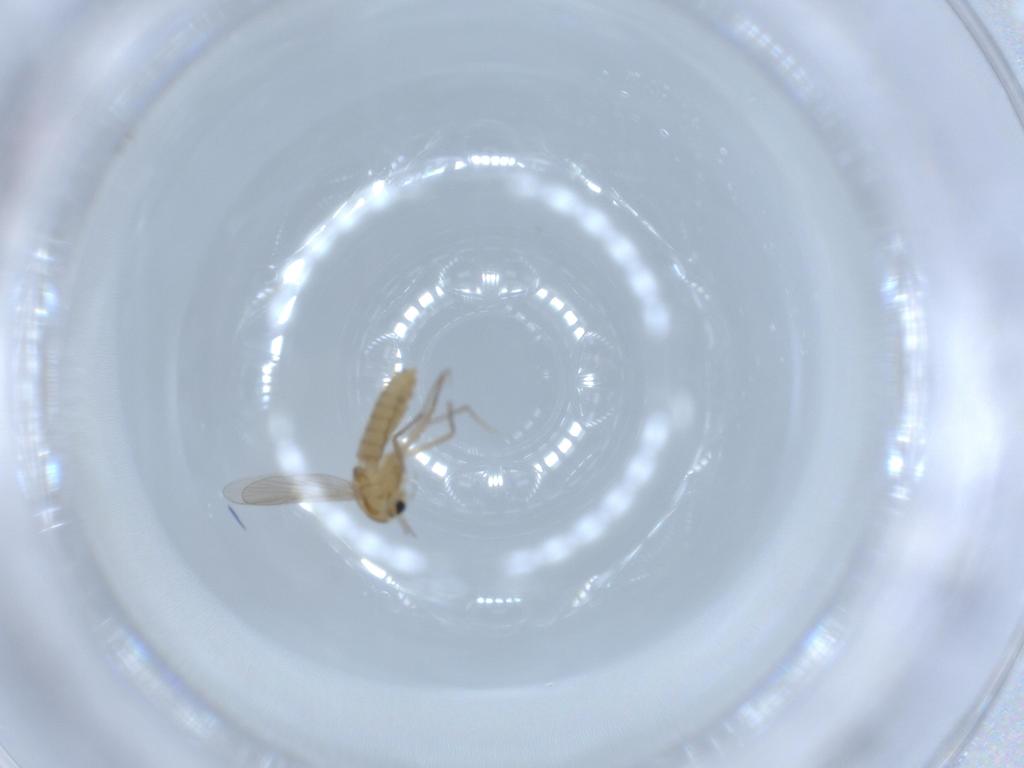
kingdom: Animalia
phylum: Arthropoda
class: Insecta
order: Diptera
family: Chironomidae
